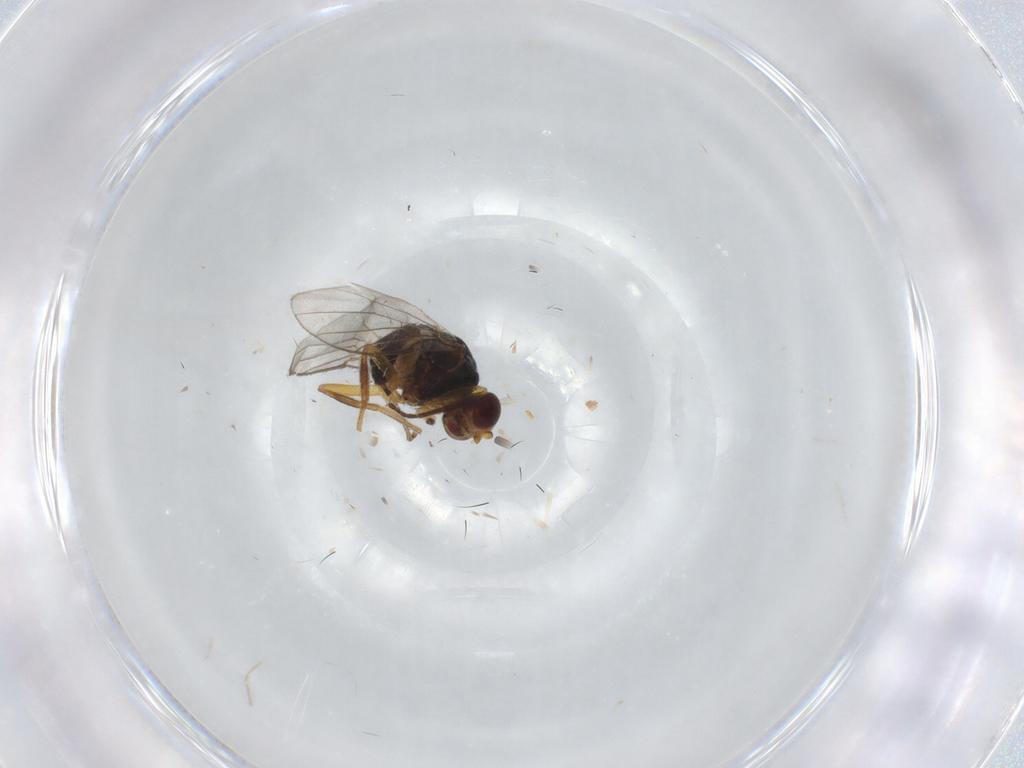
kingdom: Animalia
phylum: Arthropoda
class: Insecta
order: Diptera
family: Chloropidae
